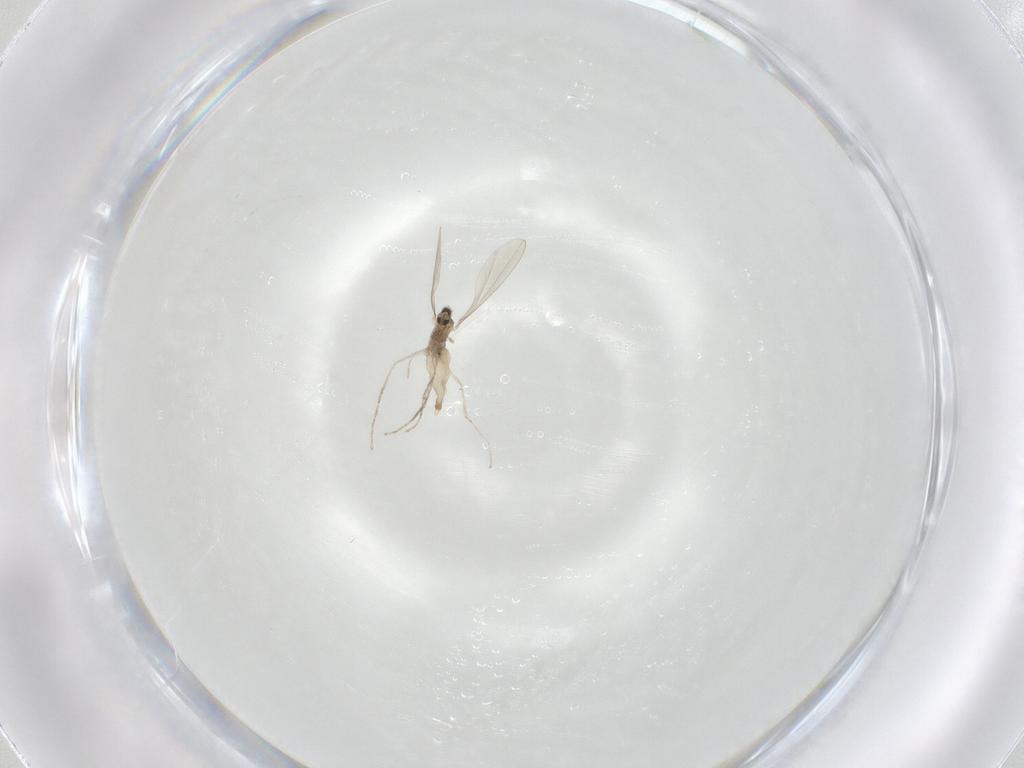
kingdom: Animalia
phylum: Arthropoda
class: Insecta
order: Diptera
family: Cecidomyiidae
